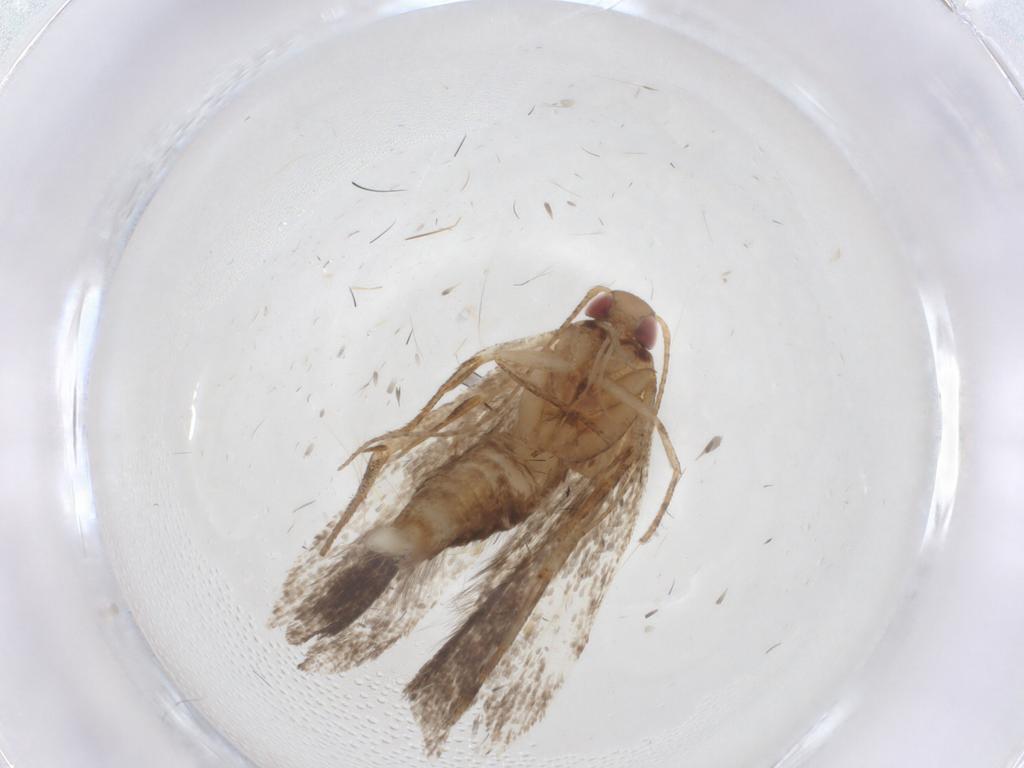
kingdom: Animalia
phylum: Arthropoda
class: Insecta
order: Lepidoptera
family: Gelechiidae
